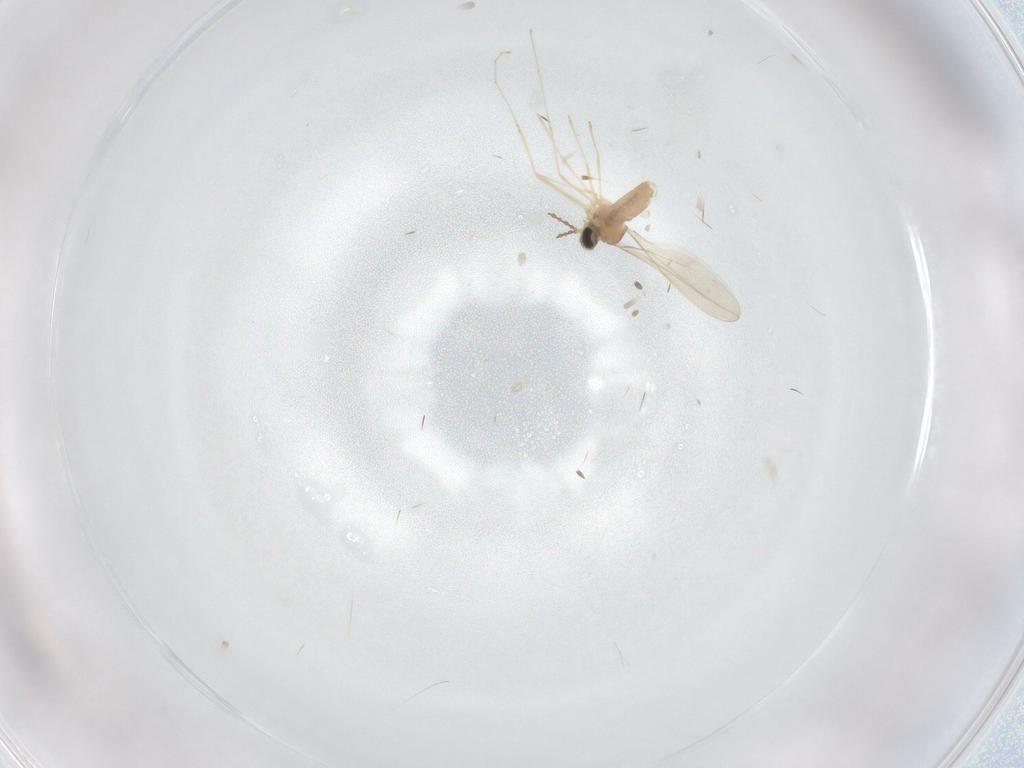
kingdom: Animalia
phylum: Arthropoda
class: Insecta
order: Diptera
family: Cecidomyiidae
